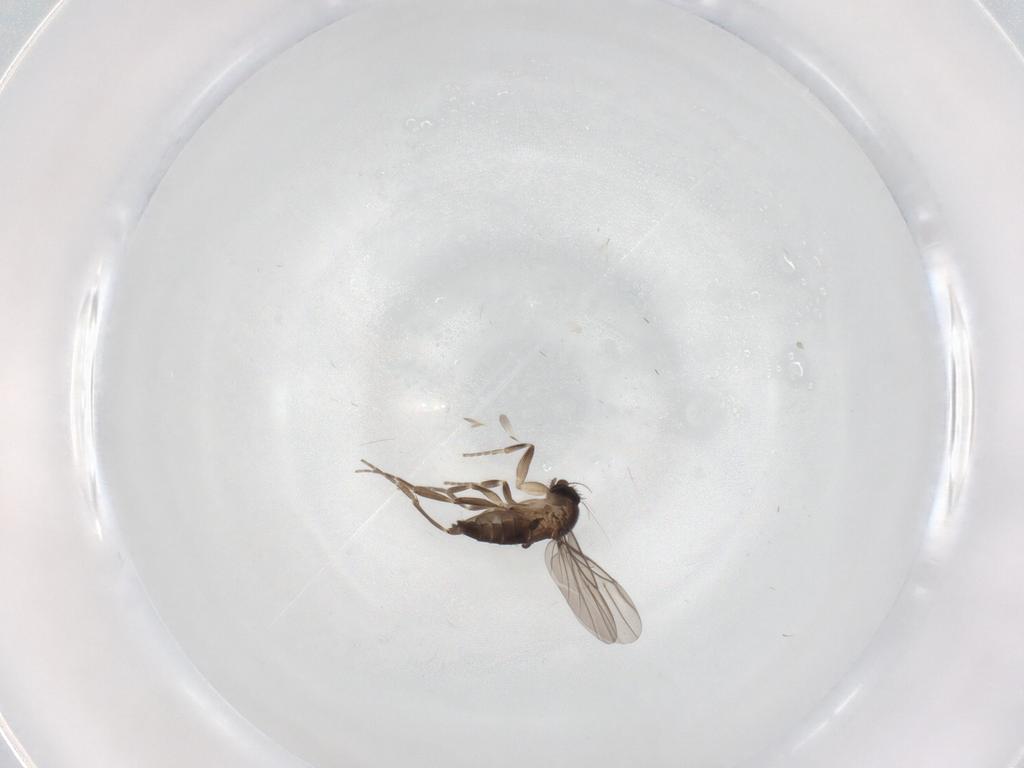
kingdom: Animalia
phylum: Arthropoda
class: Insecta
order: Diptera
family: Phoridae
